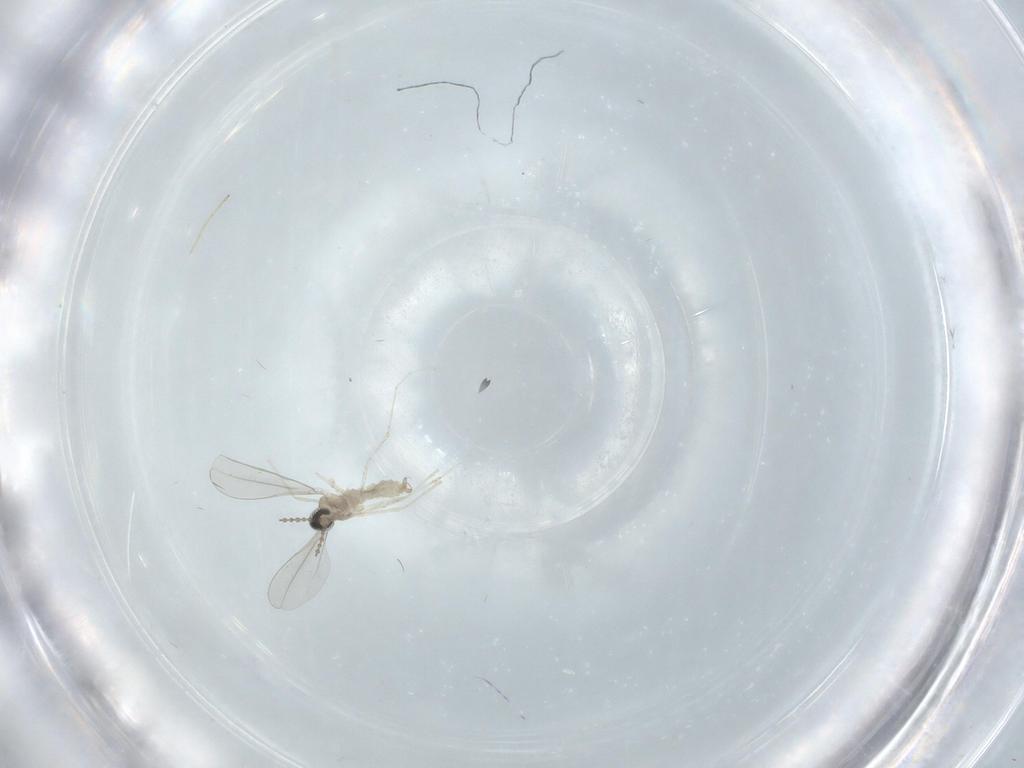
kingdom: Animalia
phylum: Arthropoda
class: Insecta
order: Diptera
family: Chironomidae
